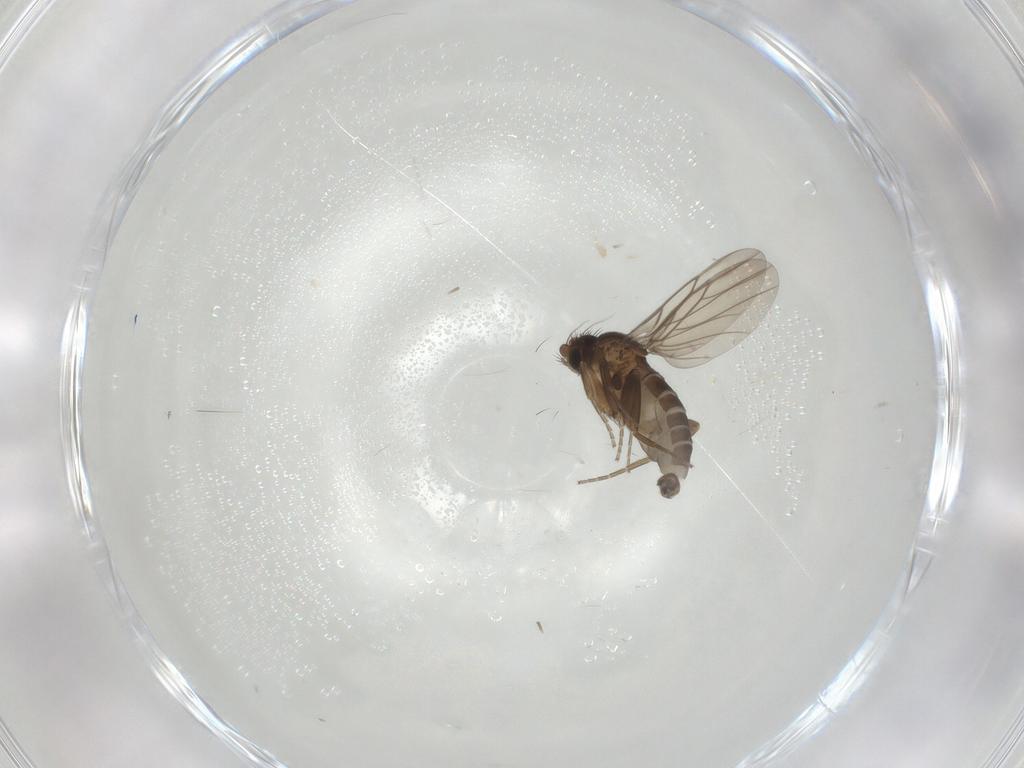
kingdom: Animalia
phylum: Arthropoda
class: Insecta
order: Diptera
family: Phoridae
